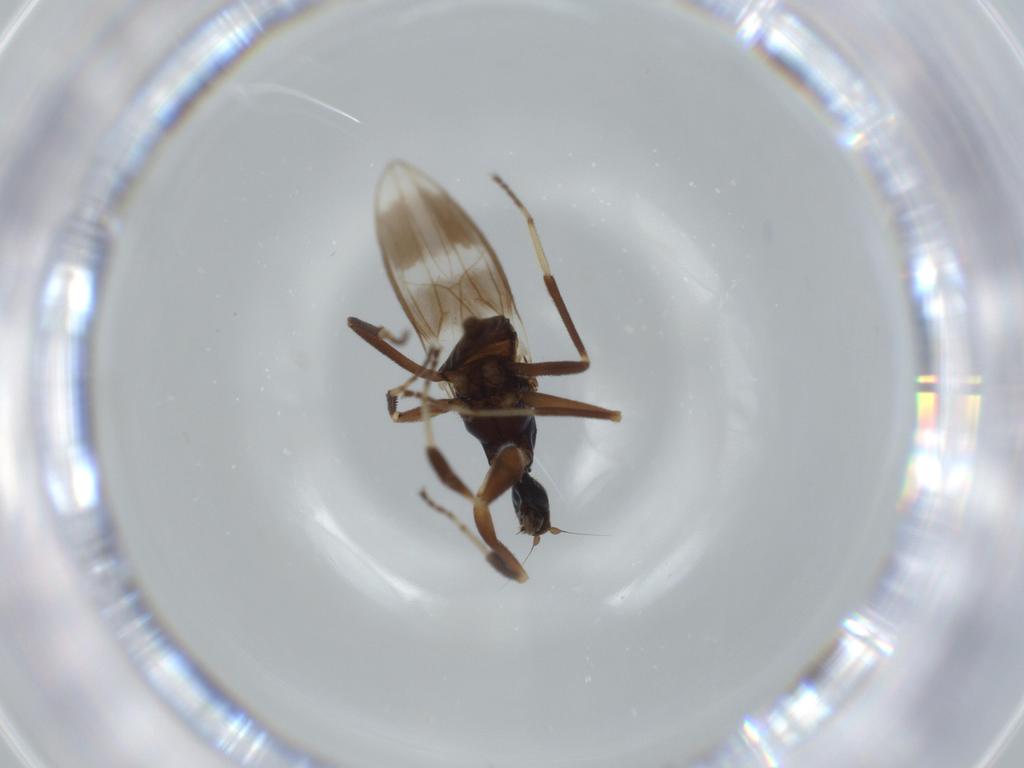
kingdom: Animalia
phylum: Arthropoda
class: Insecta
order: Diptera
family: Hybotidae
